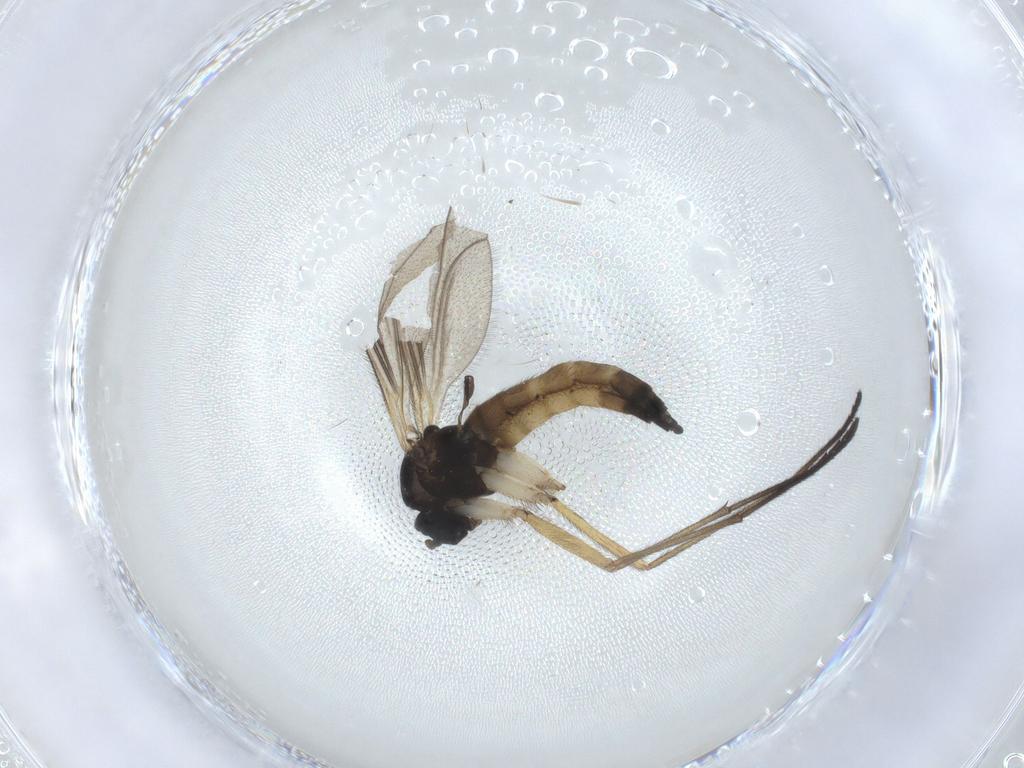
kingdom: Animalia
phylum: Arthropoda
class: Insecta
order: Diptera
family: Sciaridae
